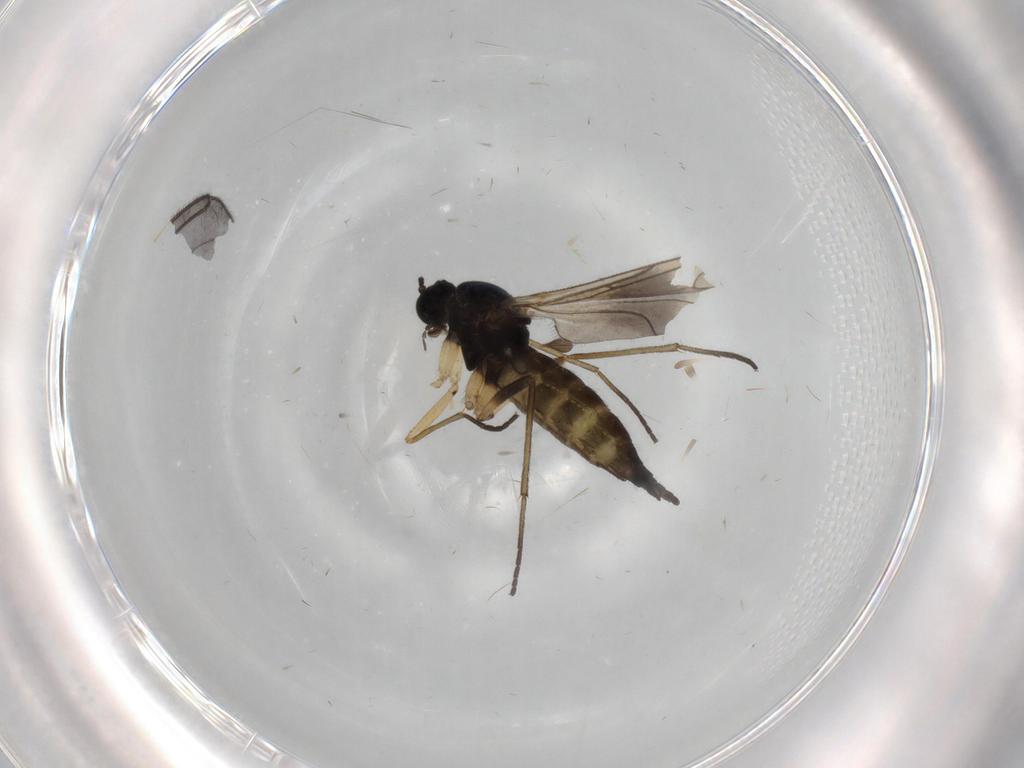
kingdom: Animalia
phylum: Arthropoda
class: Insecta
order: Diptera
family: Sciaridae
